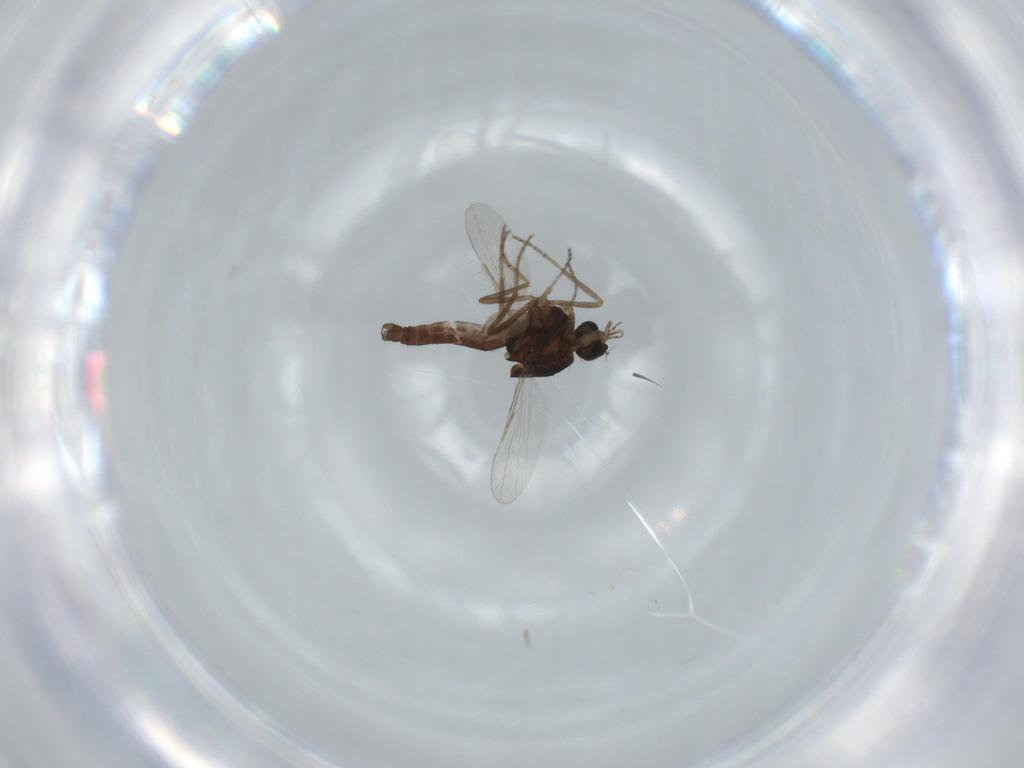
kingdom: Animalia
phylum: Arthropoda
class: Insecta
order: Diptera
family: Ceratopogonidae
